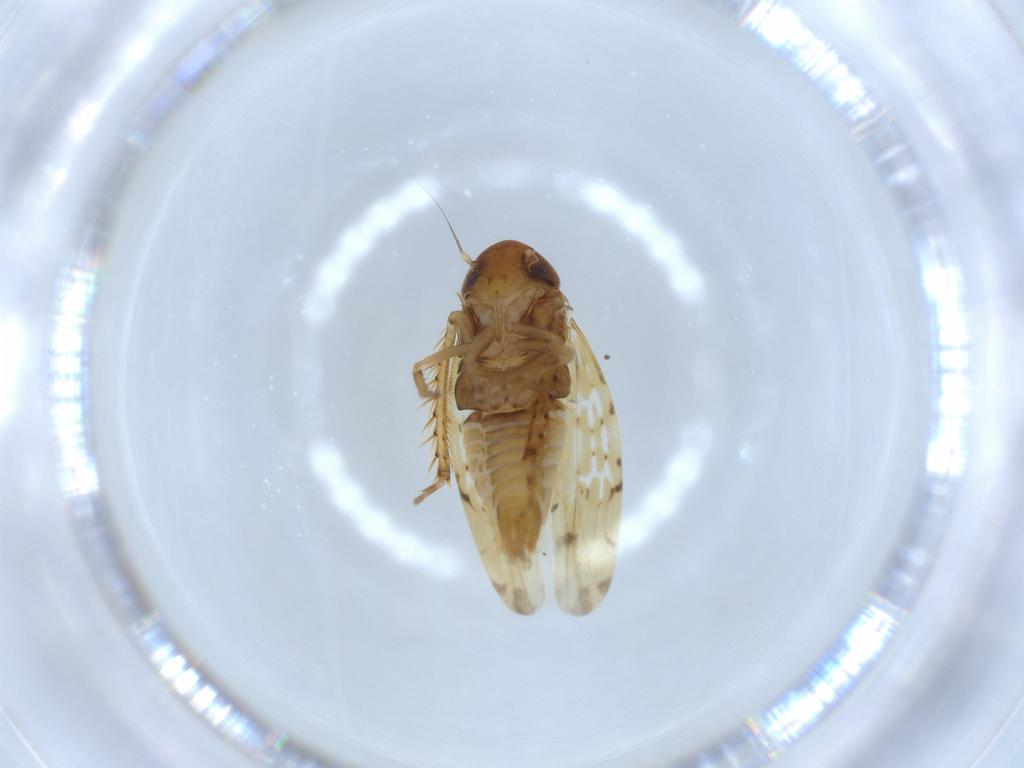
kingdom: Animalia
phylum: Arthropoda
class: Insecta
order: Hemiptera
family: Cicadellidae
